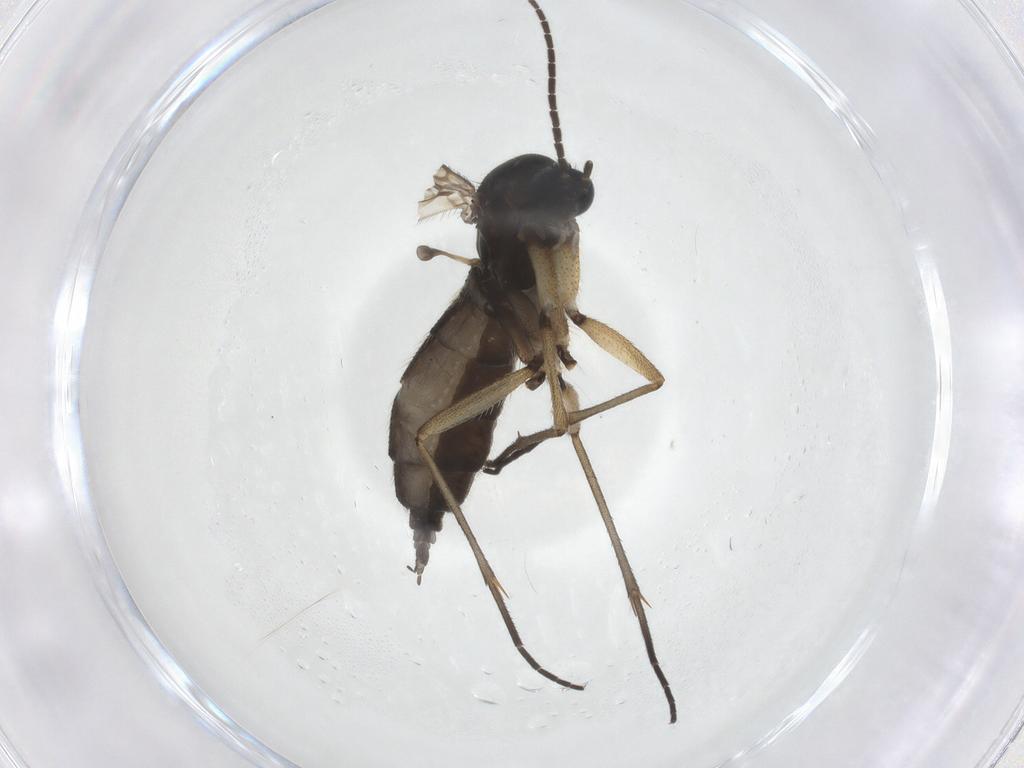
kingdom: Animalia
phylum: Arthropoda
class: Insecta
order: Diptera
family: Sciaridae
